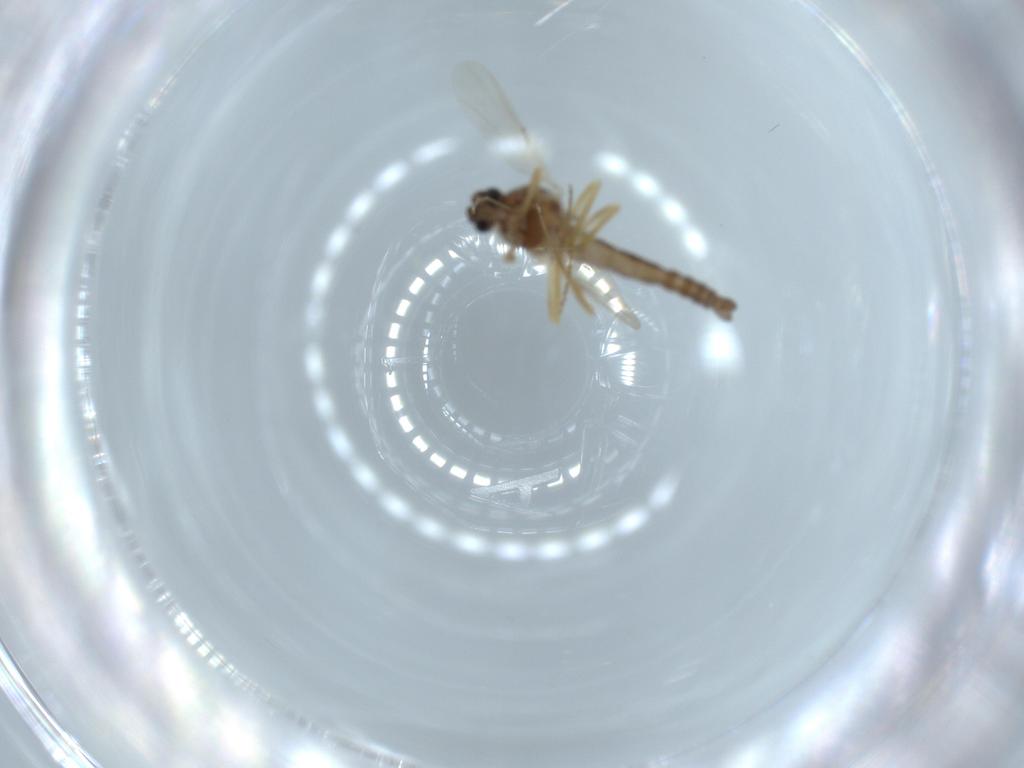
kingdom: Animalia
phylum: Arthropoda
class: Insecta
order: Diptera
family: Ceratopogonidae
